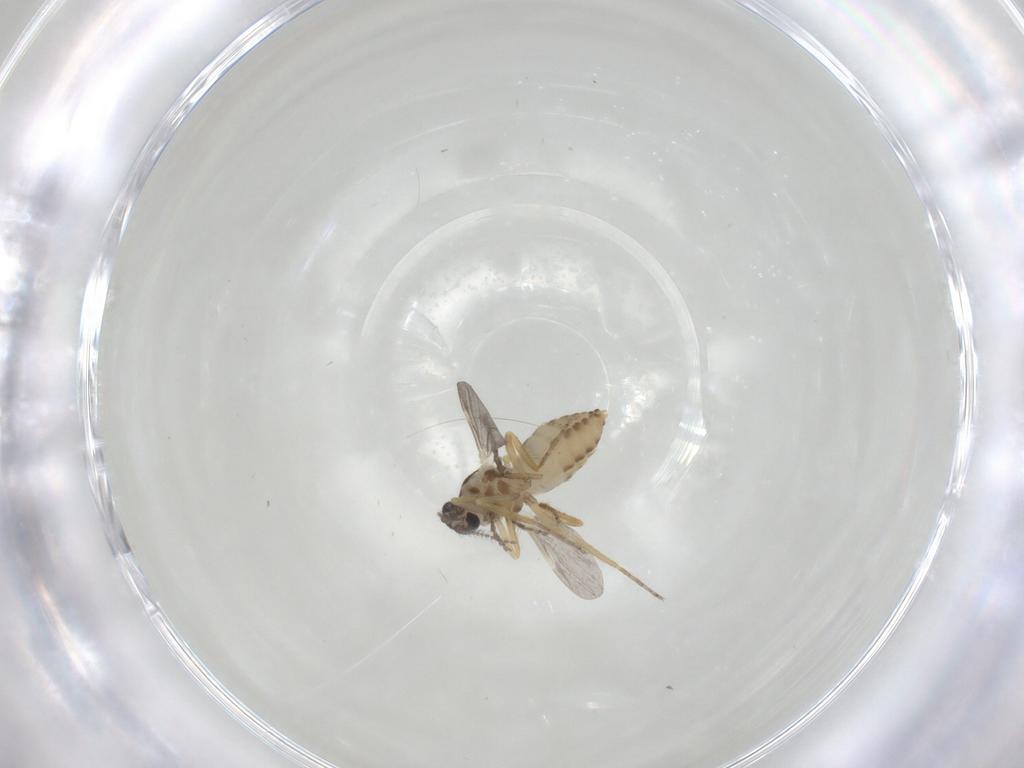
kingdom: Animalia
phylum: Arthropoda
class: Insecta
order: Diptera
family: Ceratopogonidae
